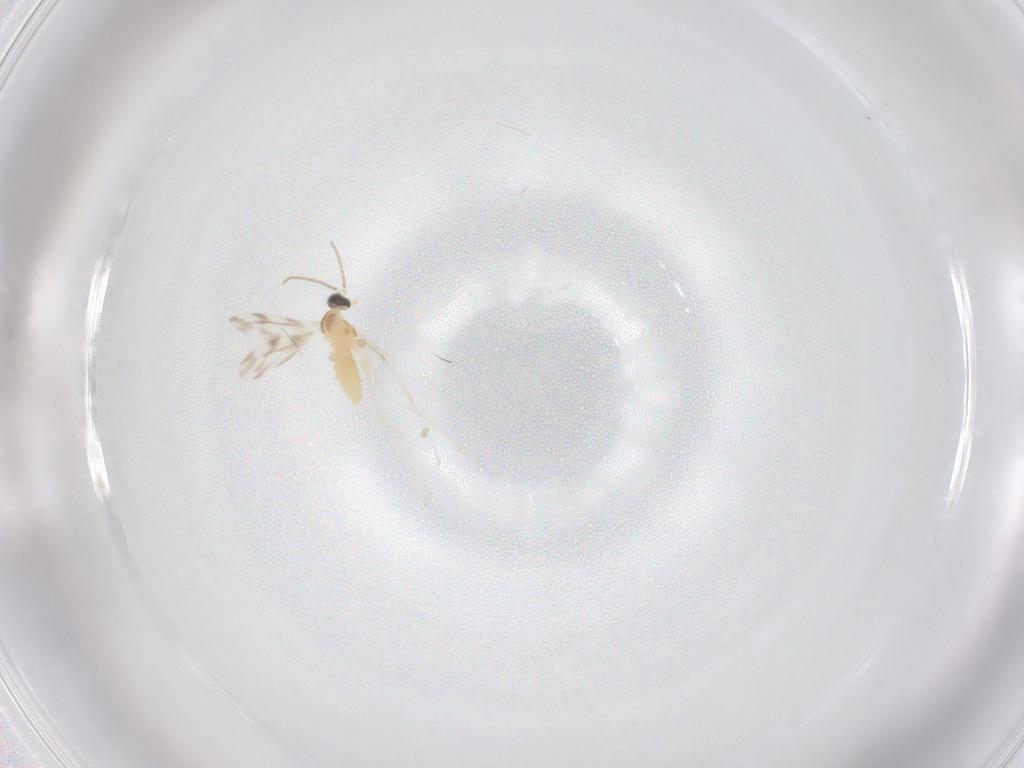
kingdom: Animalia
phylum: Arthropoda
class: Insecta
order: Diptera
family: Cecidomyiidae
